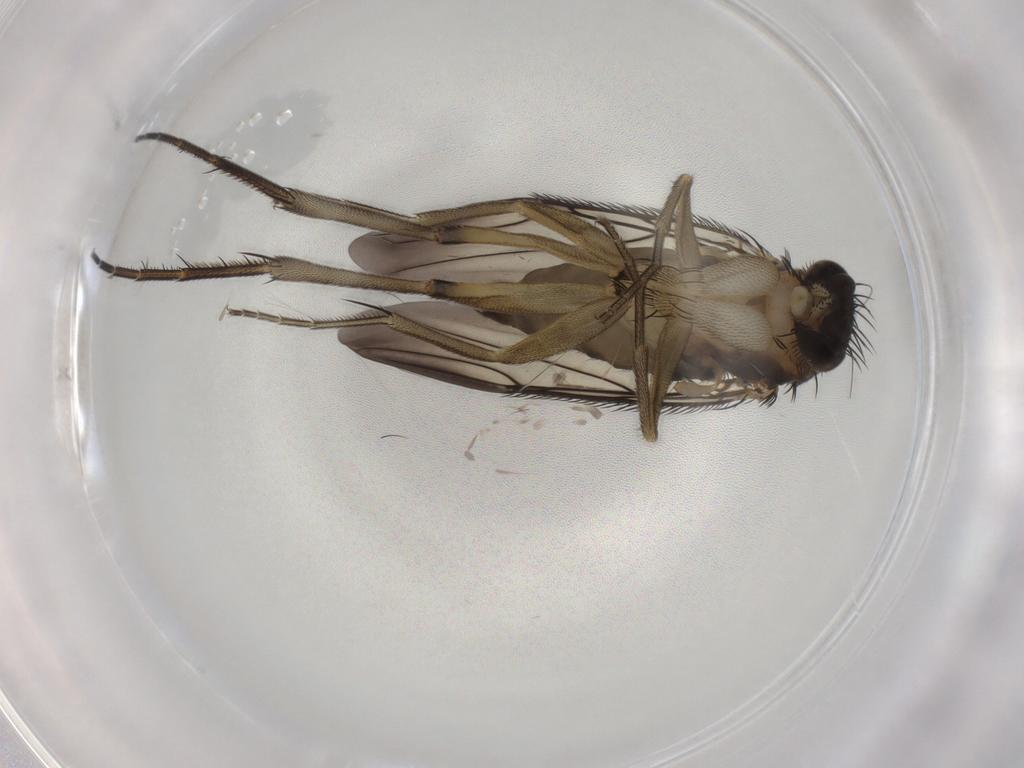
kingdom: Animalia
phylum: Arthropoda
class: Insecta
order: Diptera
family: Phoridae
